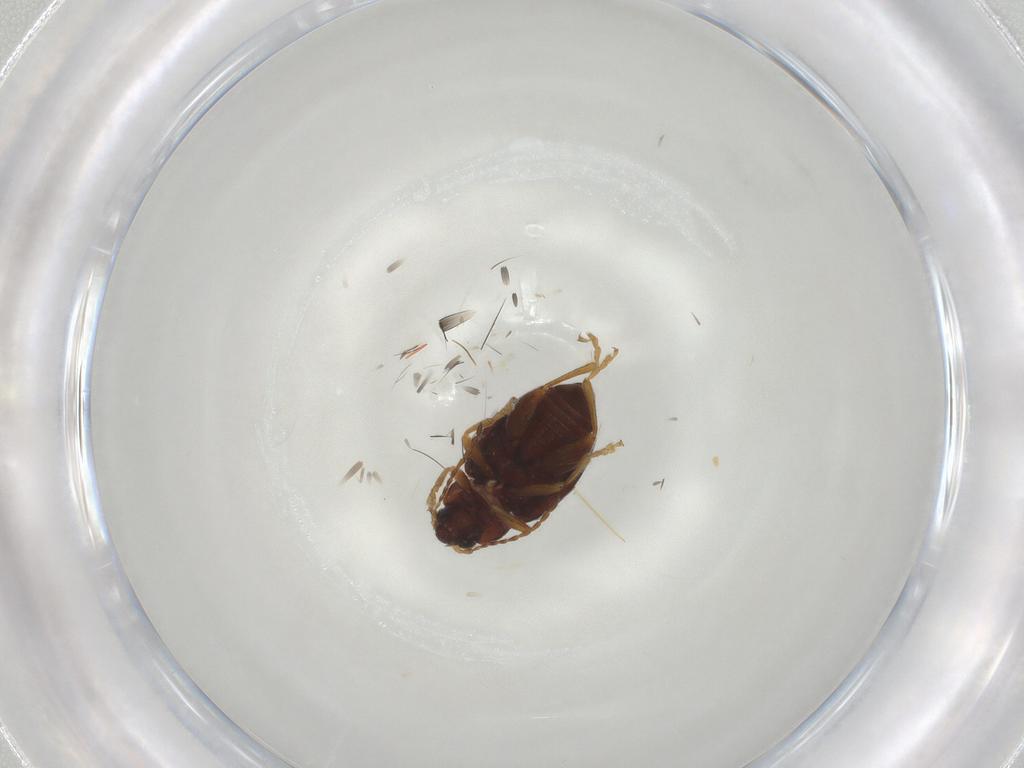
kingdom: Animalia
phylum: Arthropoda
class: Insecta
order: Coleoptera
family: Chrysomelidae
